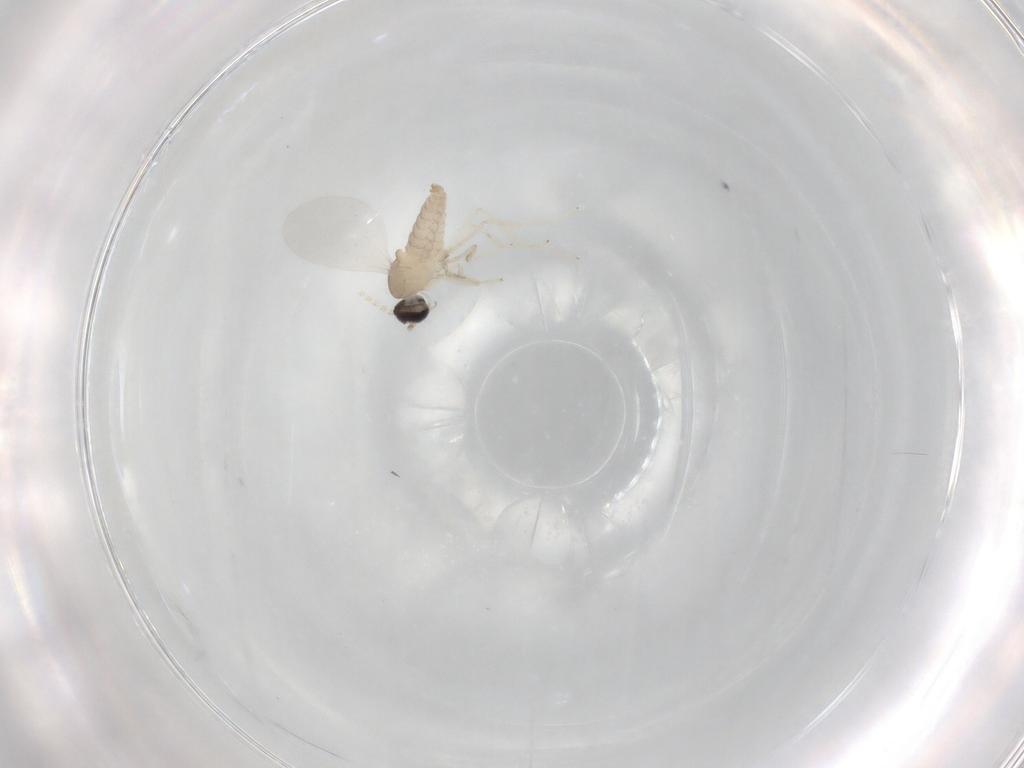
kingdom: Animalia
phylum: Arthropoda
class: Insecta
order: Diptera
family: Cecidomyiidae
